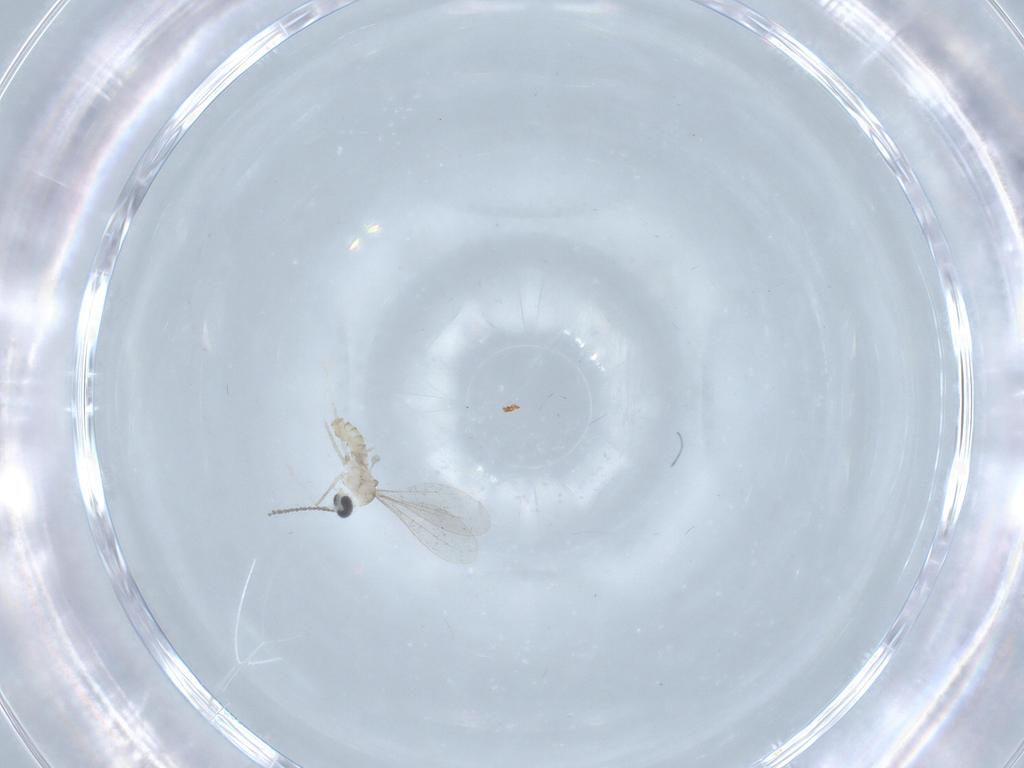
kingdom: Animalia
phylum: Arthropoda
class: Insecta
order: Diptera
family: Cecidomyiidae
